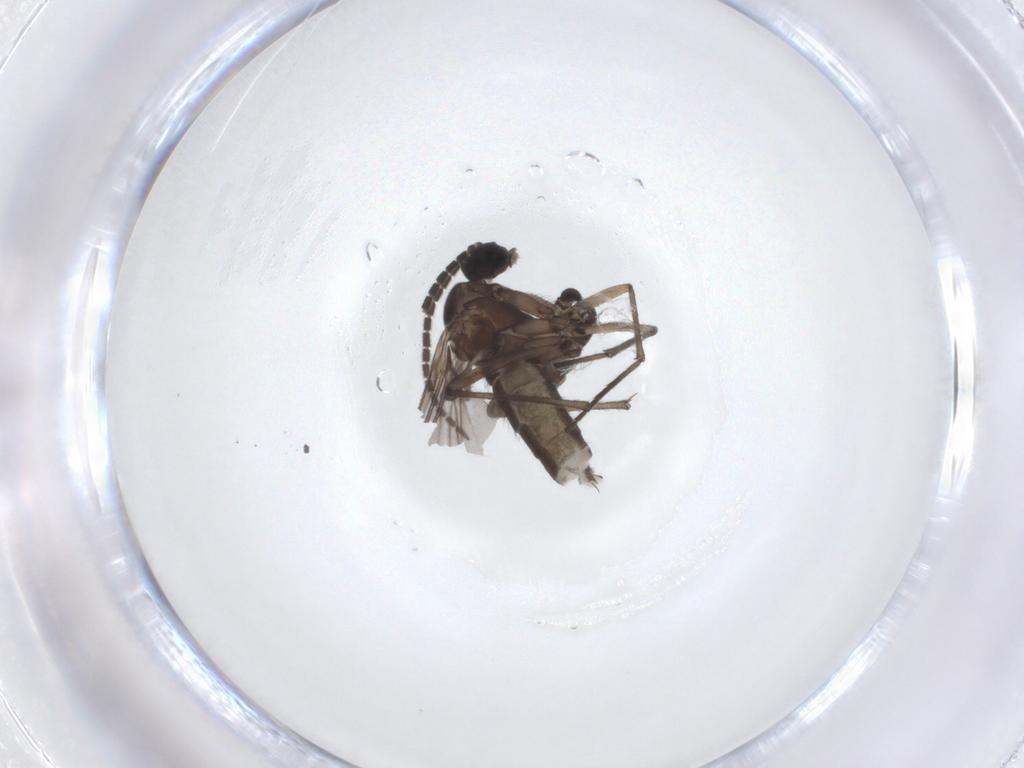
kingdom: Animalia
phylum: Arthropoda
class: Insecta
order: Diptera
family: Sciaridae
